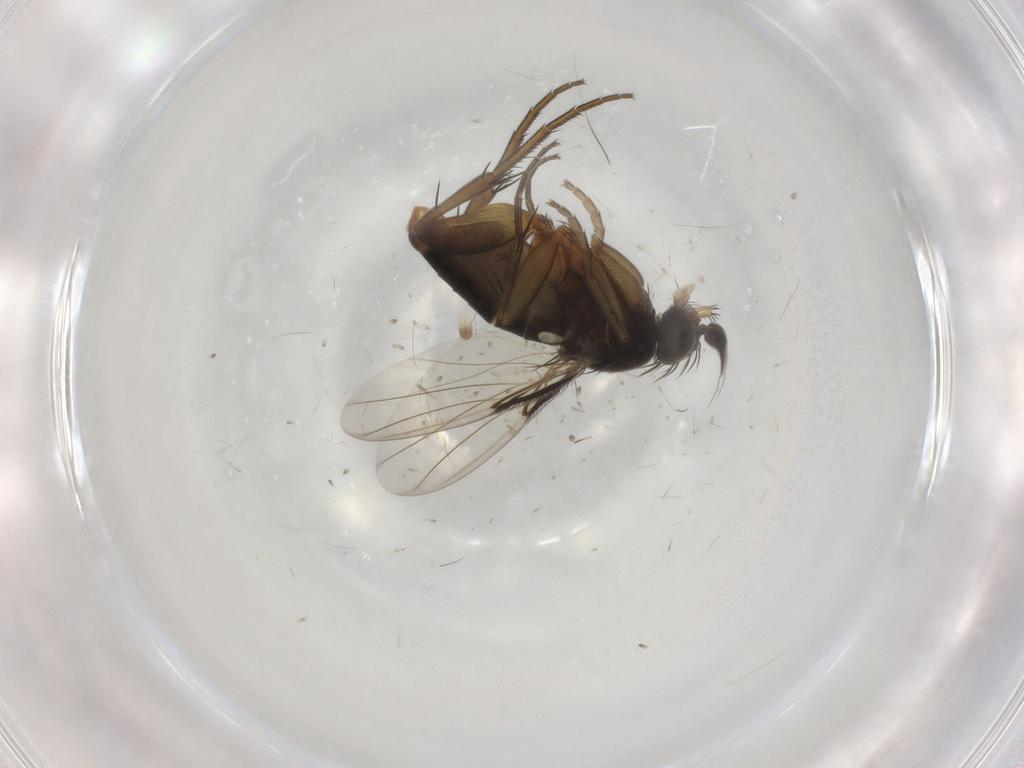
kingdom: Animalia
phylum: Arthropoda
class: Insecta
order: Diptera
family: Phoridae
